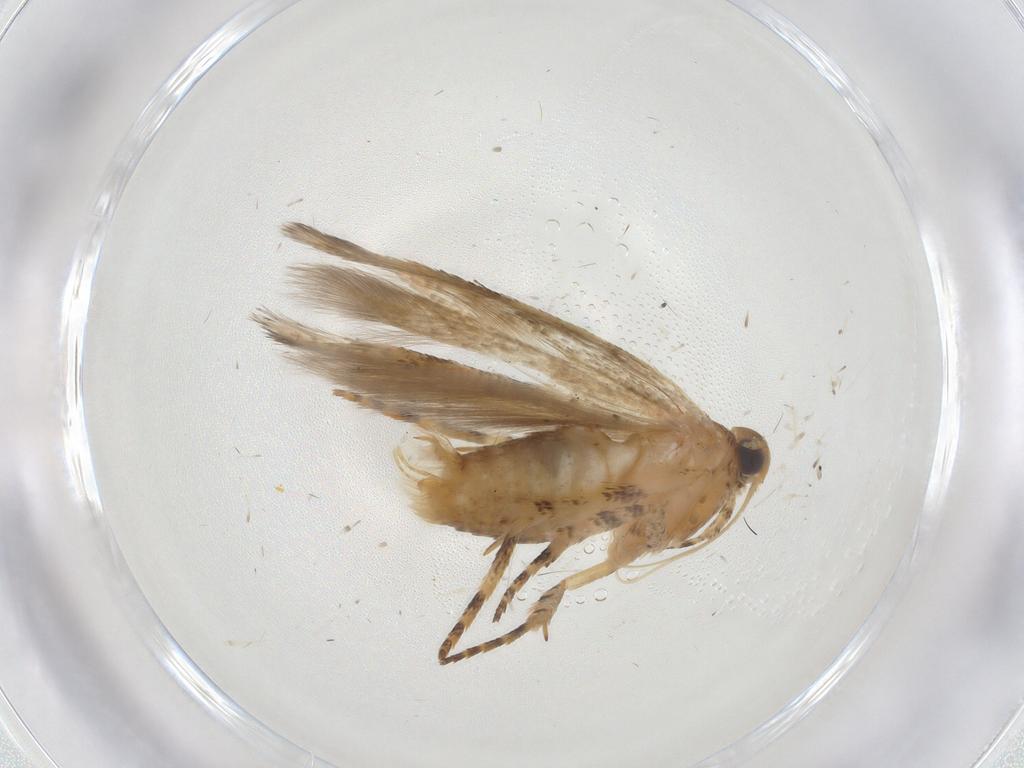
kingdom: Animalia
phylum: Arthropoda
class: Insecta
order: Lepidoptera
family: Gelechiidae
